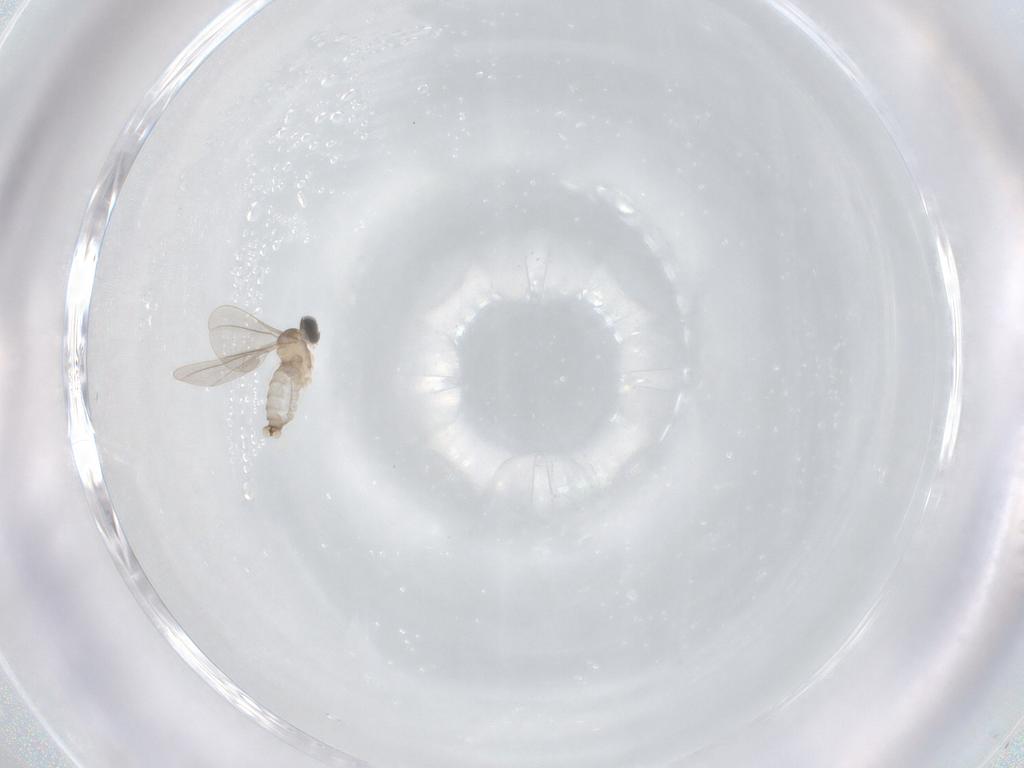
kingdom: Animalia
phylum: Arthropoda
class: Insecta
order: Diptera
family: Cecidomyiidae
